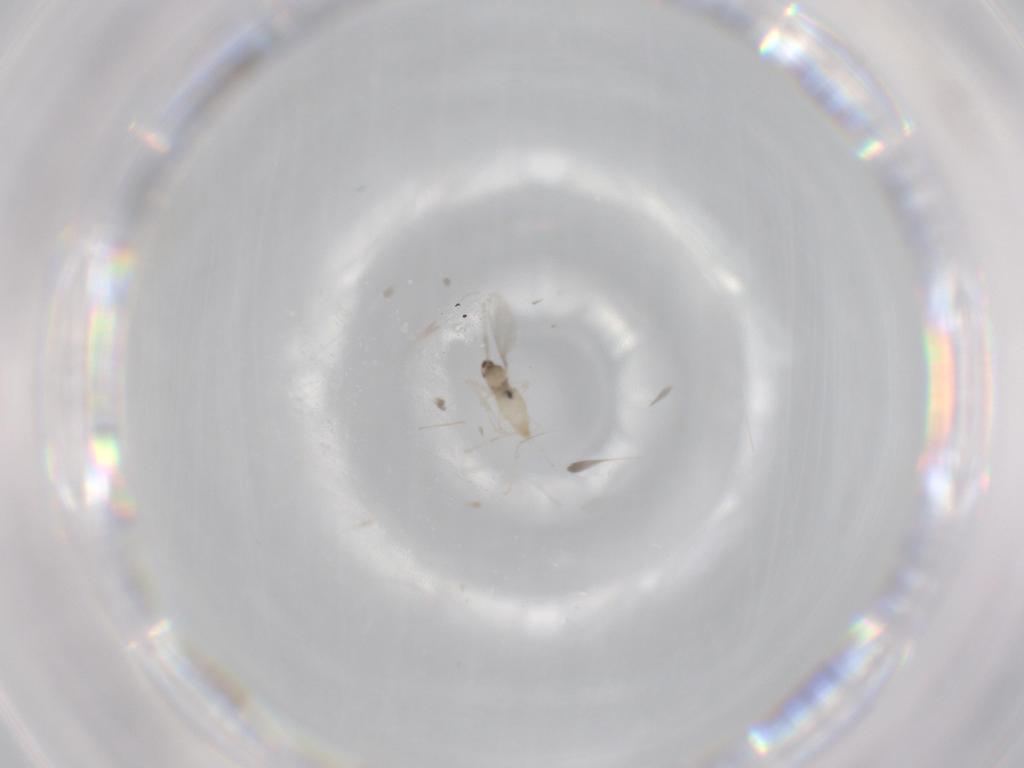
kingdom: Animalia
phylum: Arthropoda
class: Insecta
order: Diptera
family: Cecidomyiidae
